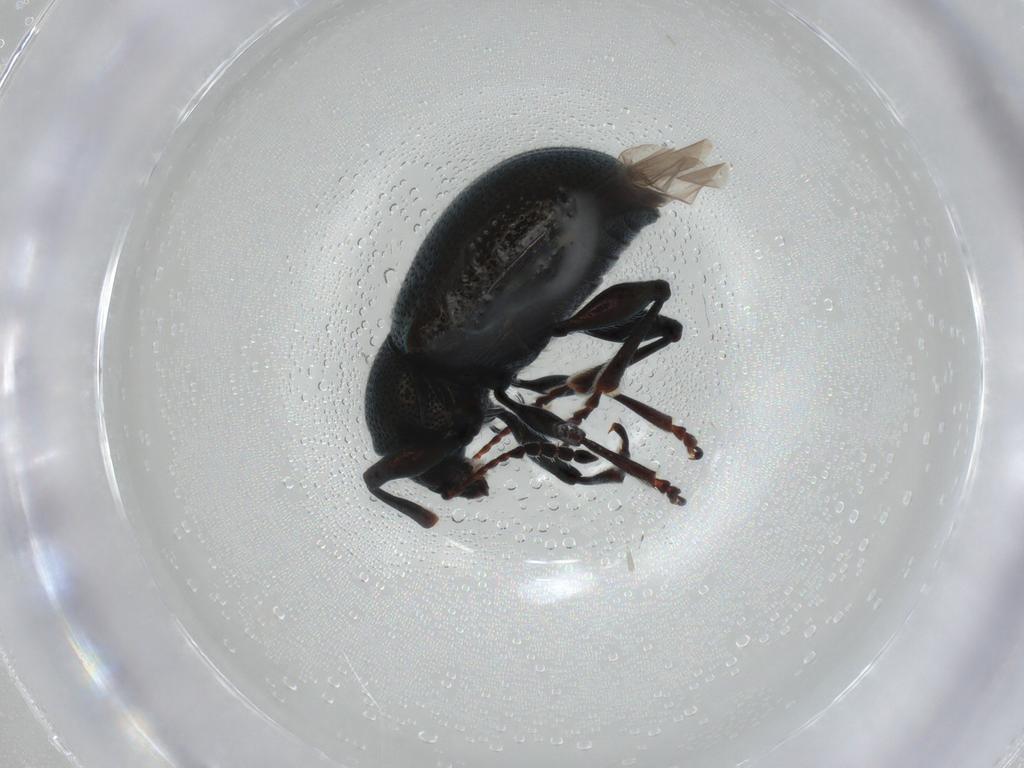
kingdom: Animalia
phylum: Arthropoda
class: Insecta
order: Coleoptera
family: Chrysomelidae
